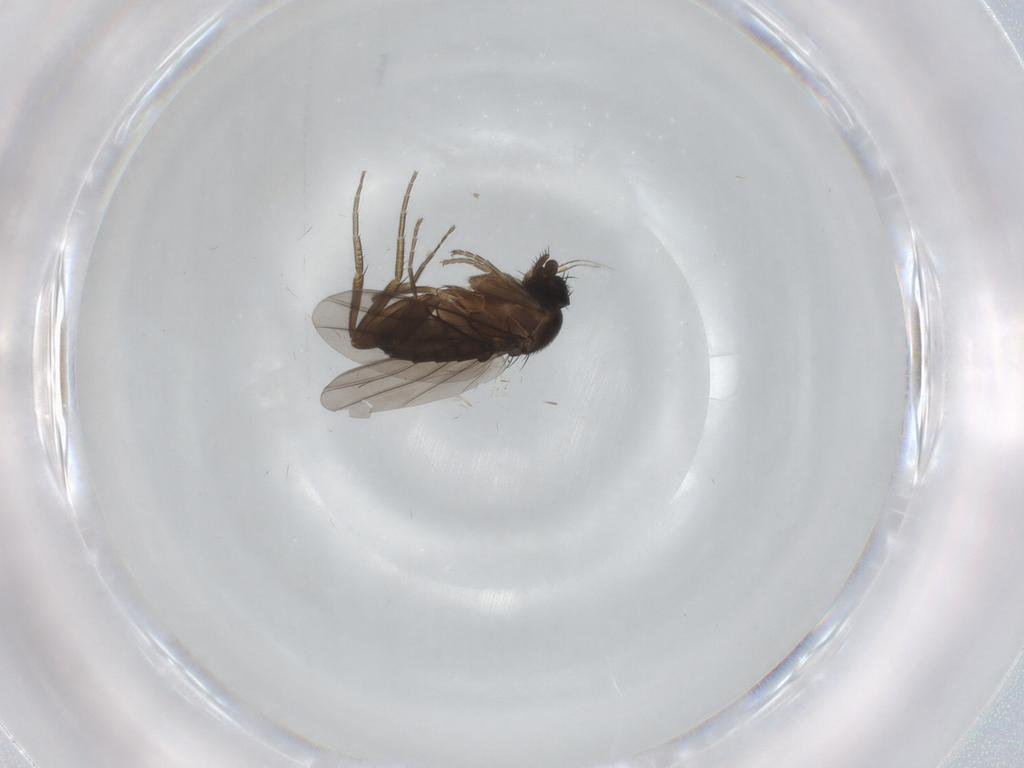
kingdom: Animalia
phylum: Arthropoda
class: Insecta
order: Diptera
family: Phoridae
